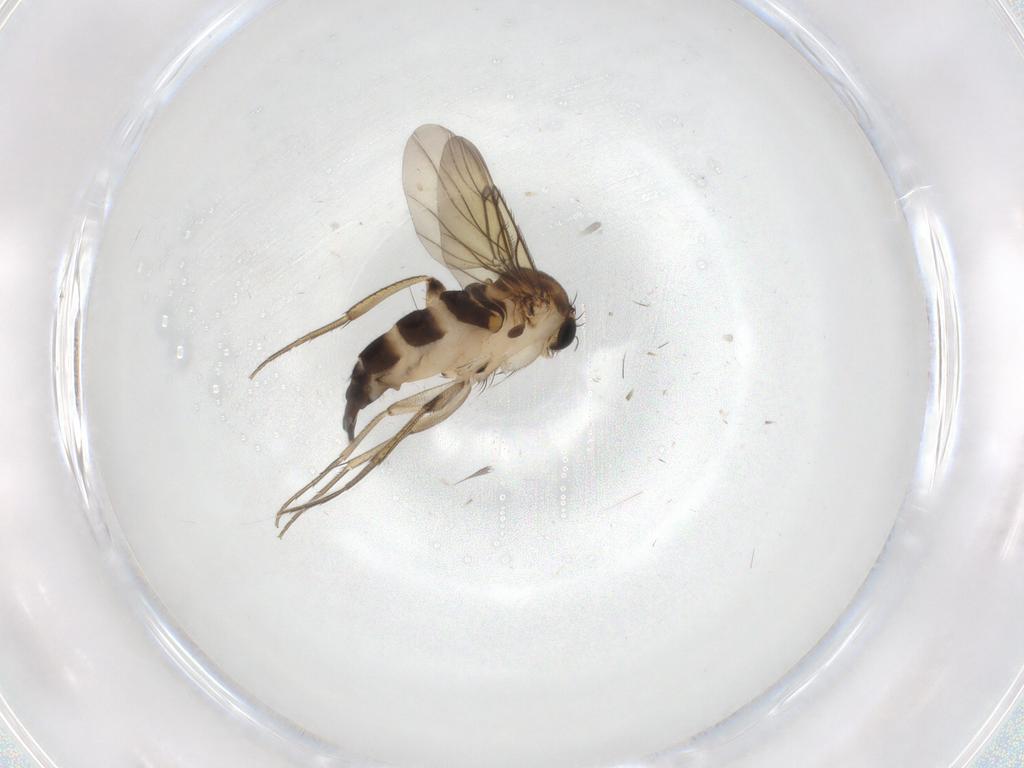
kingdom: Animalia
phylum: Arthropoda
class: Insecta
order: Diptera
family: Phoridae
